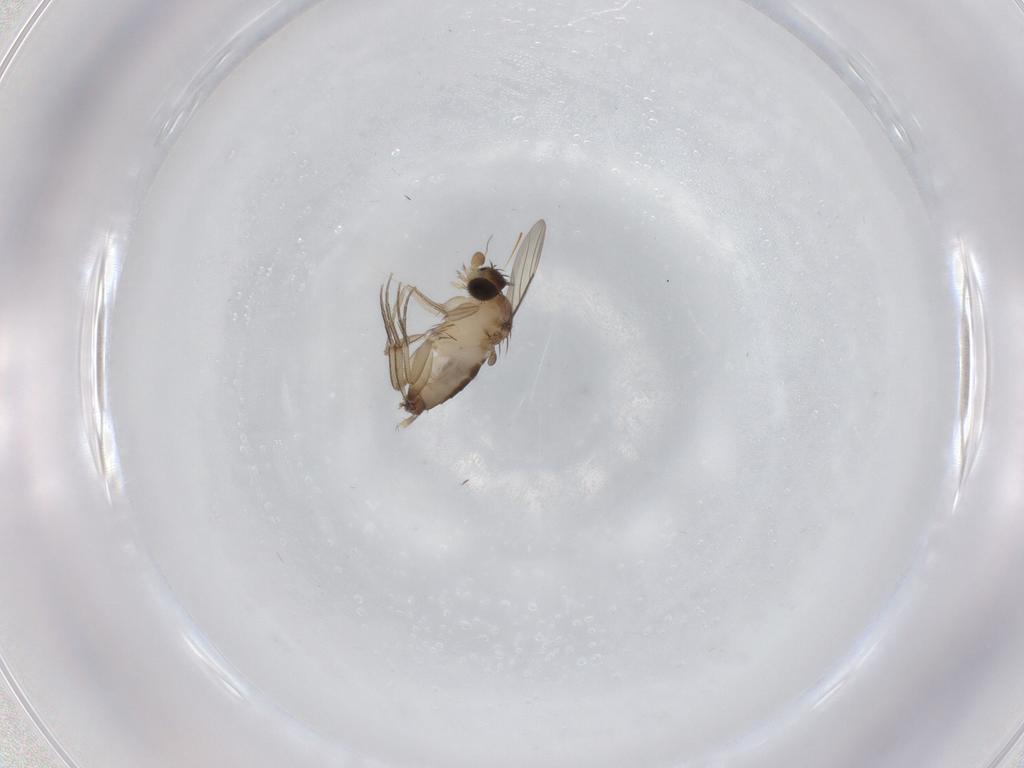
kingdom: Animalia
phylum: Arthropoda
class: Insecta
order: Diptera
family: Phoridae
